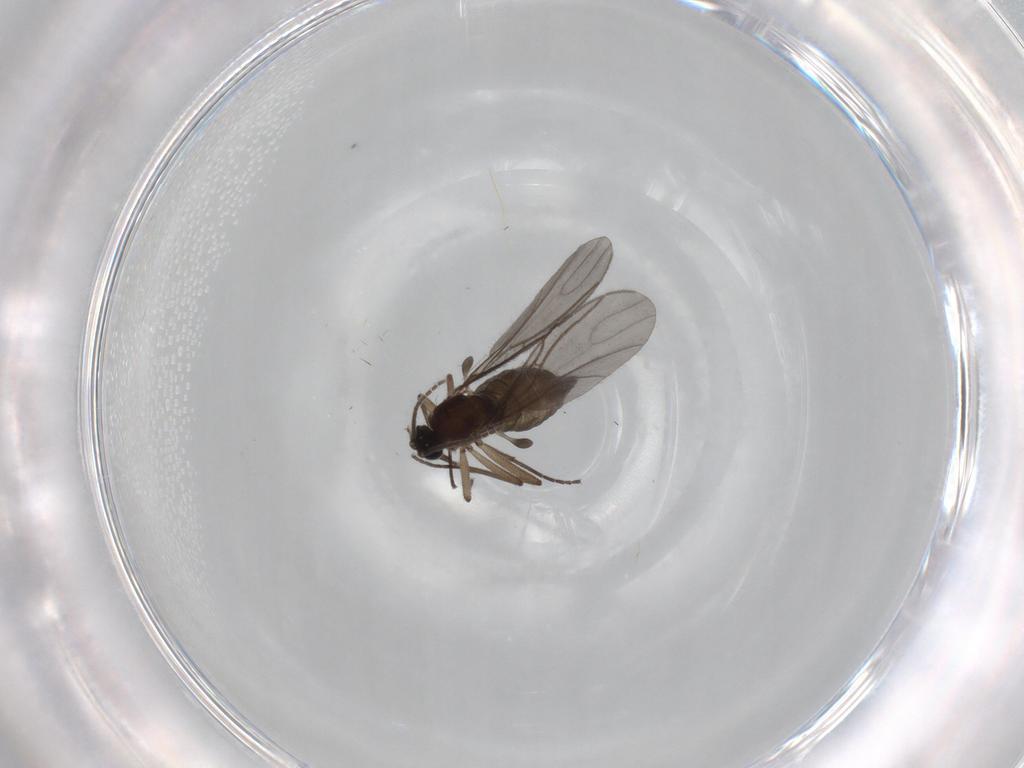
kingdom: Animalia
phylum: Arthropoda
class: Insecta
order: Diptera
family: Sciaridae
